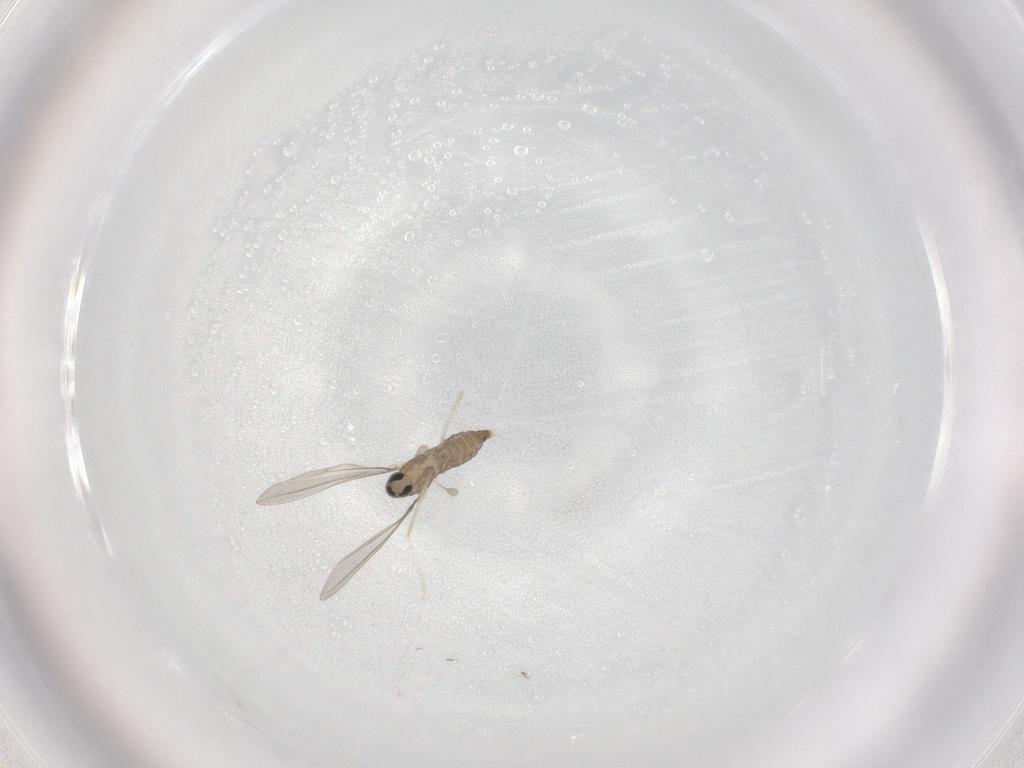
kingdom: Animalia
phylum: Arthropoda
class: Insecta
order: Diptera
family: Cecidomyiidae
